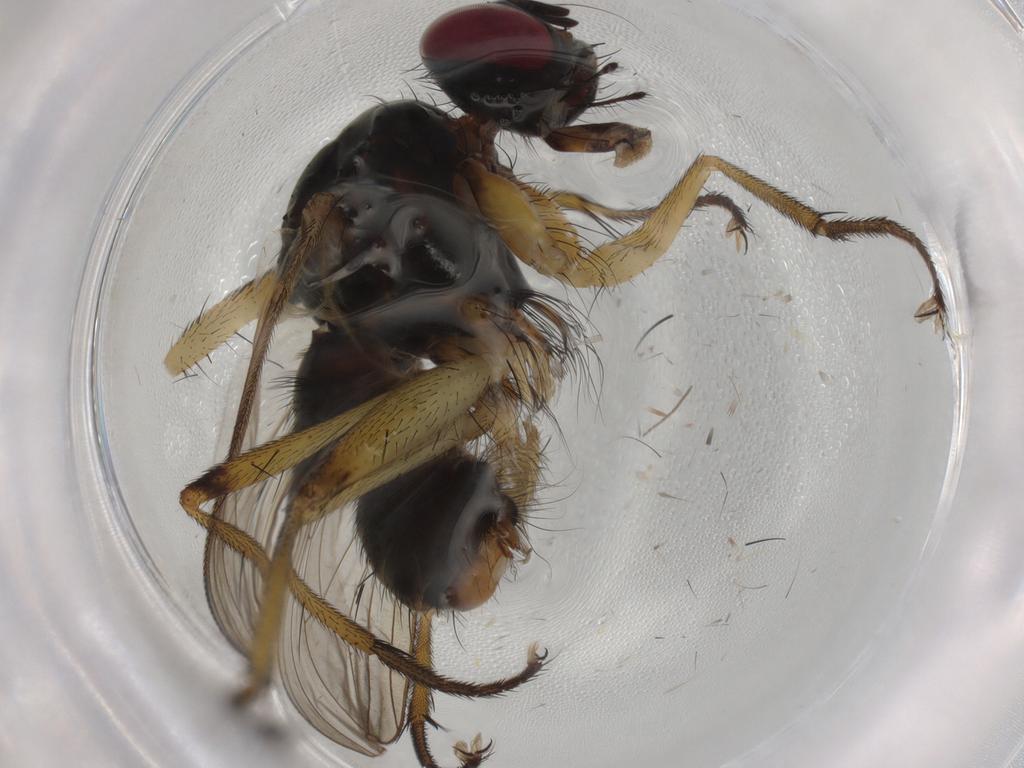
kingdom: Animalia
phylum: Arthropoda
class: Insecta
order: Diptera
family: Muscidae
